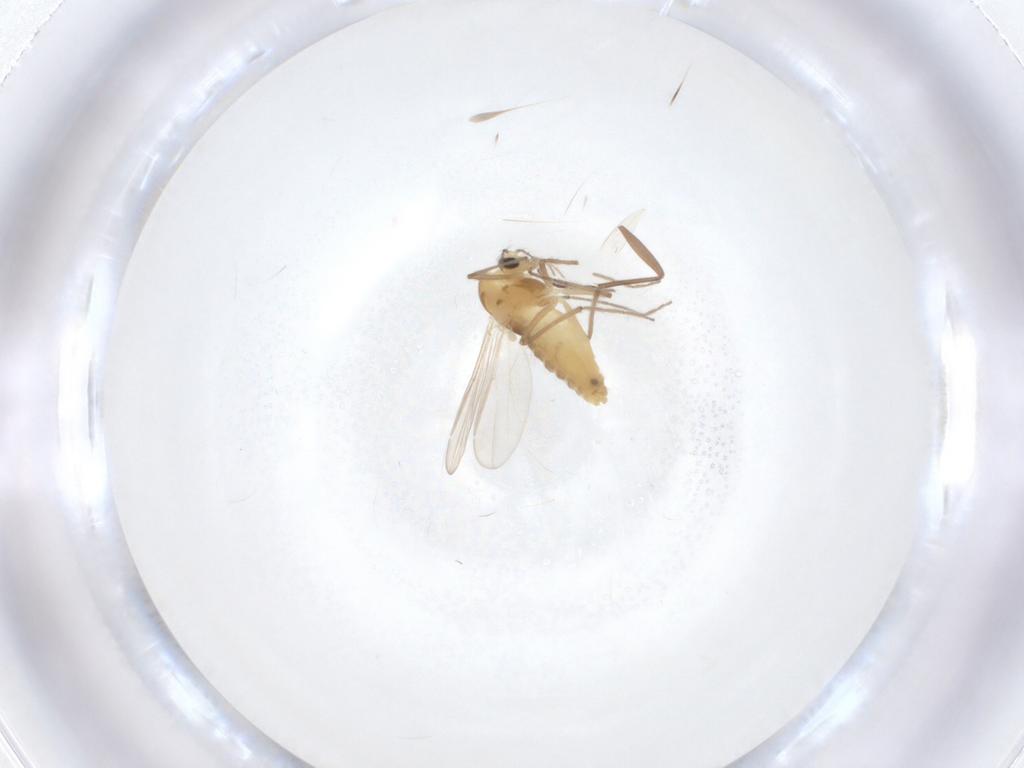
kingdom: Animalia
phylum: Arthropoda
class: Insecta
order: Diptera
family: Chironomidae
